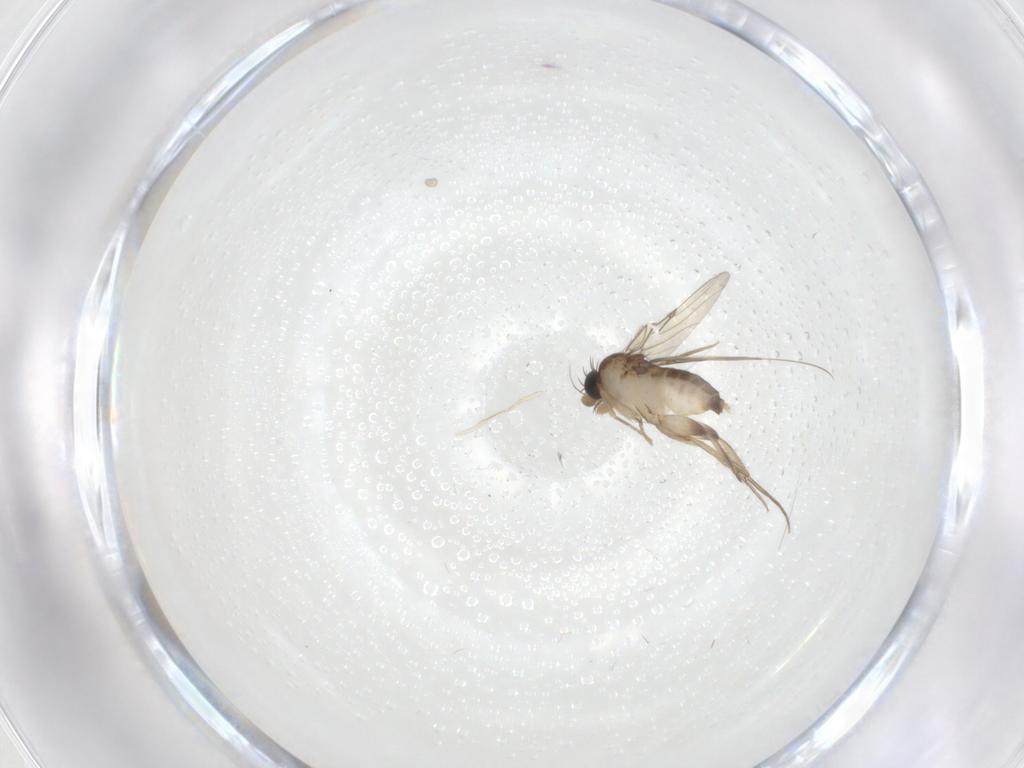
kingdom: Animalia
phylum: Arthropoda
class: Insecta
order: Diptera
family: Phoridae
